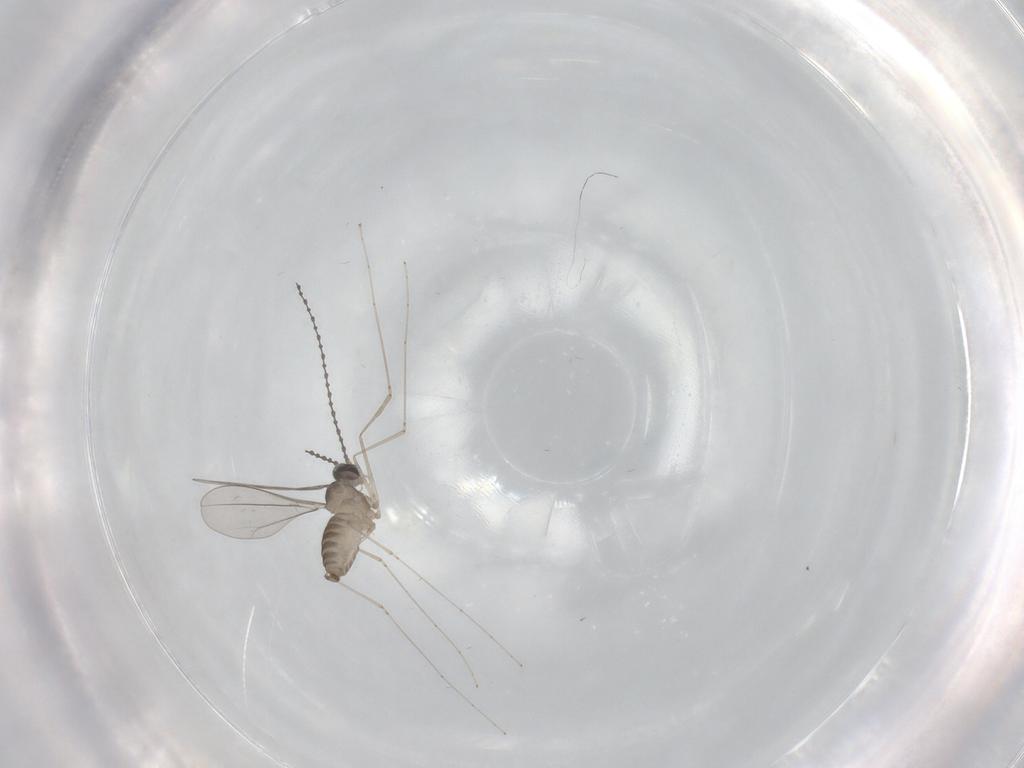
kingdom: Animalia
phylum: Arthropoda
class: Insecta
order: Diptera
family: Cecidomyiidae
